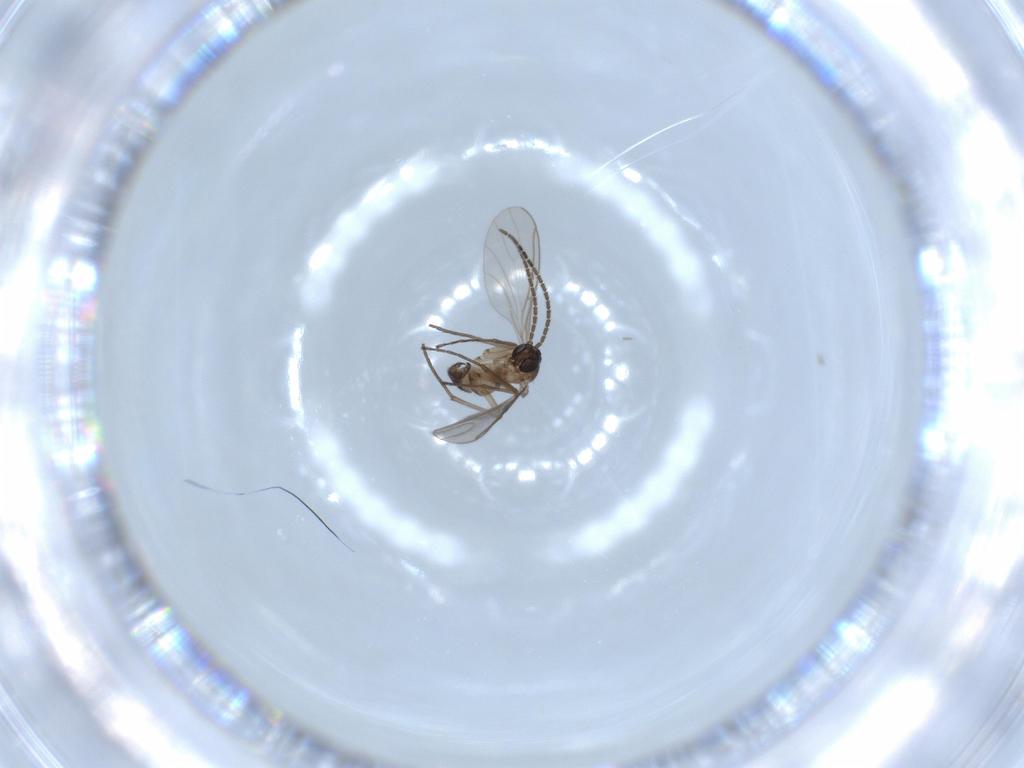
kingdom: Animalia
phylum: Arthropoda
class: Insecta
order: Diptera
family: Sciaridae
